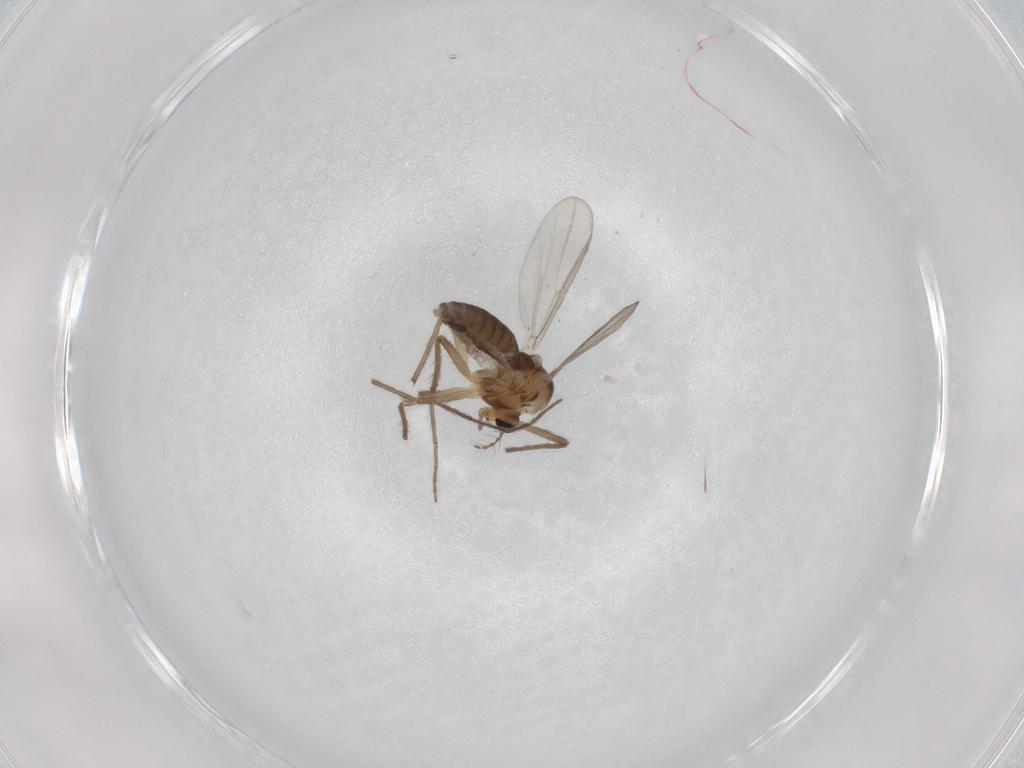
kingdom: Animalia
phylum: Arthropoda
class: Insecta
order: Diptera
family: Chironomidae
